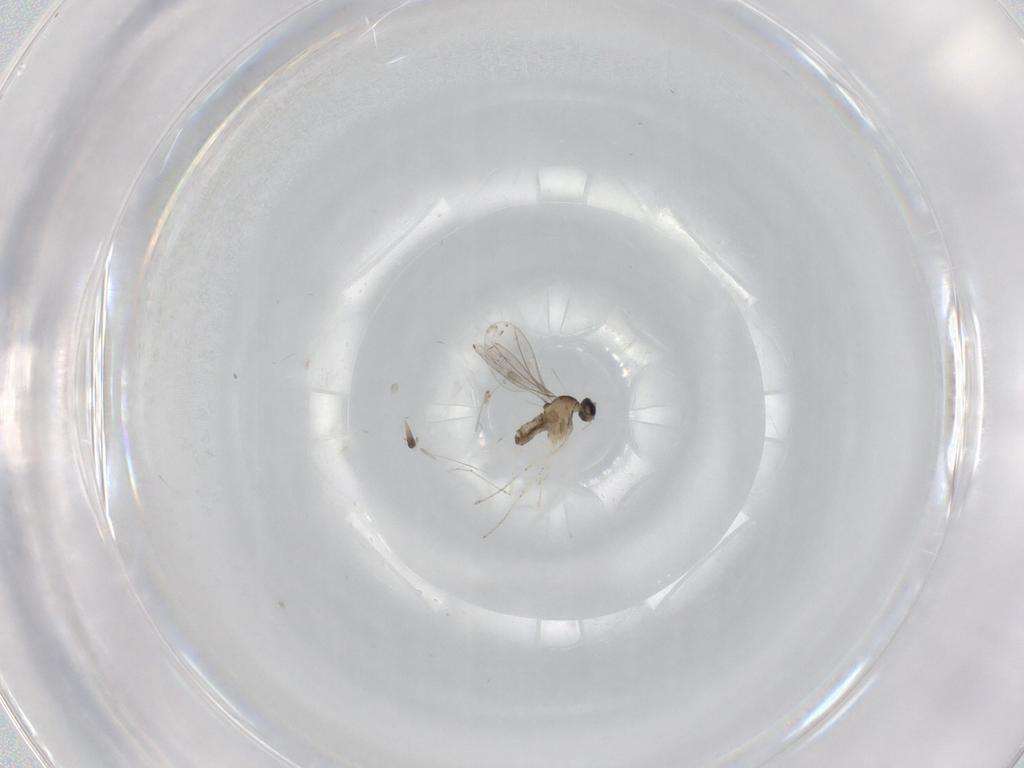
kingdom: Animalia
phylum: Arthropoda
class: Insecta
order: Diptera
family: Cecidomyiidae
